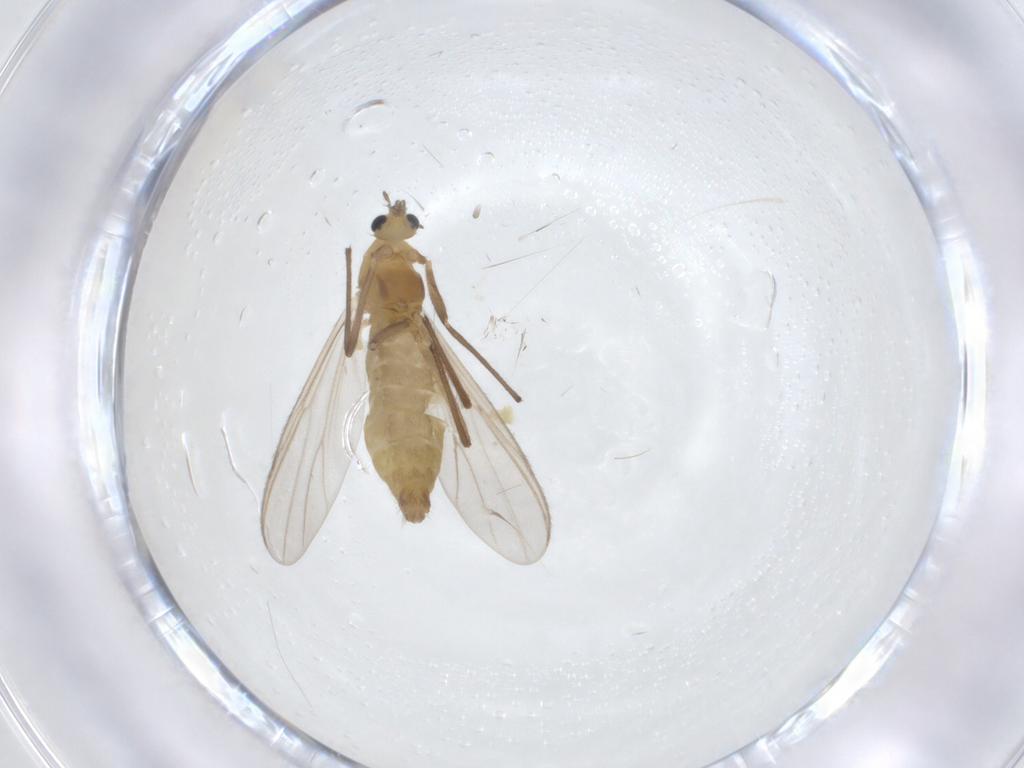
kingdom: Animalia
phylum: Arthropoda
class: Insecta
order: Diptera
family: Chironomidae
